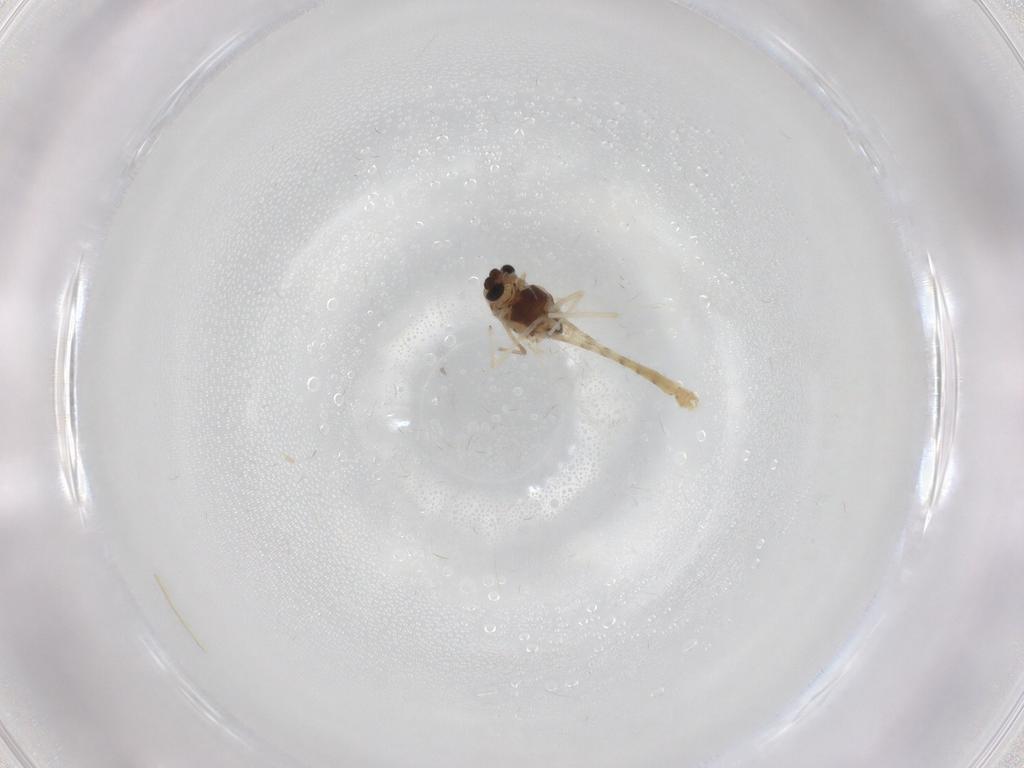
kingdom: Animalia
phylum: Arthropoda
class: Insecta
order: Diptera
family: Chironomidae
